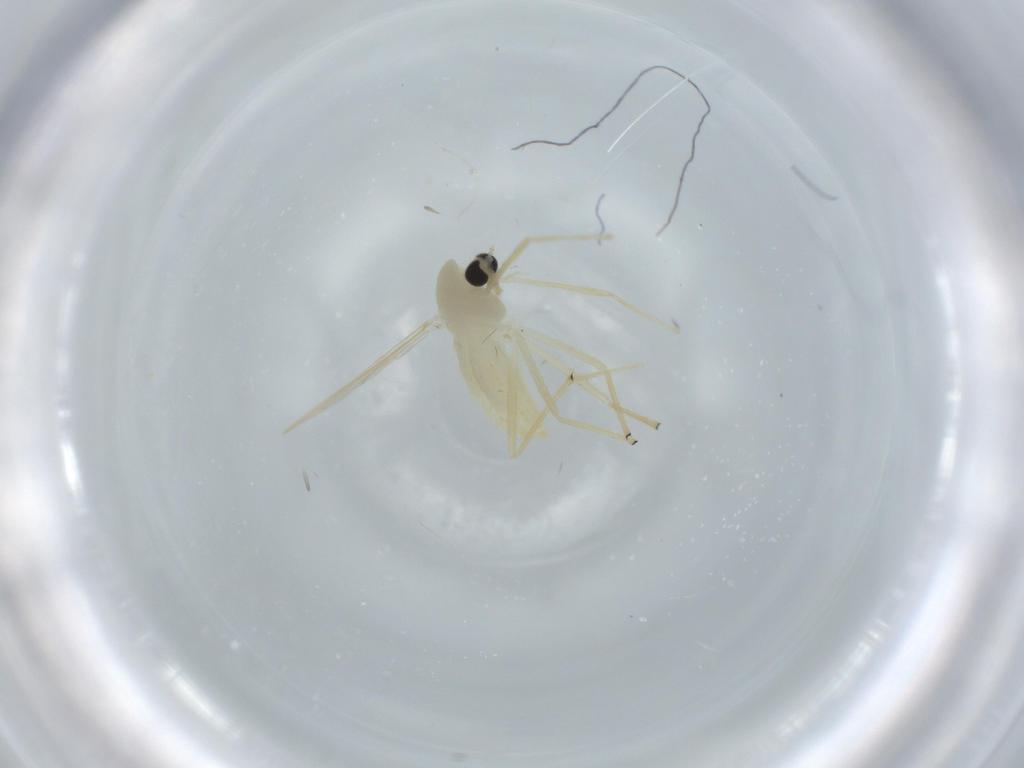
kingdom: Animalia
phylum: Arthropoda
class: Insecta
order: Diptera
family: Chironomidae
